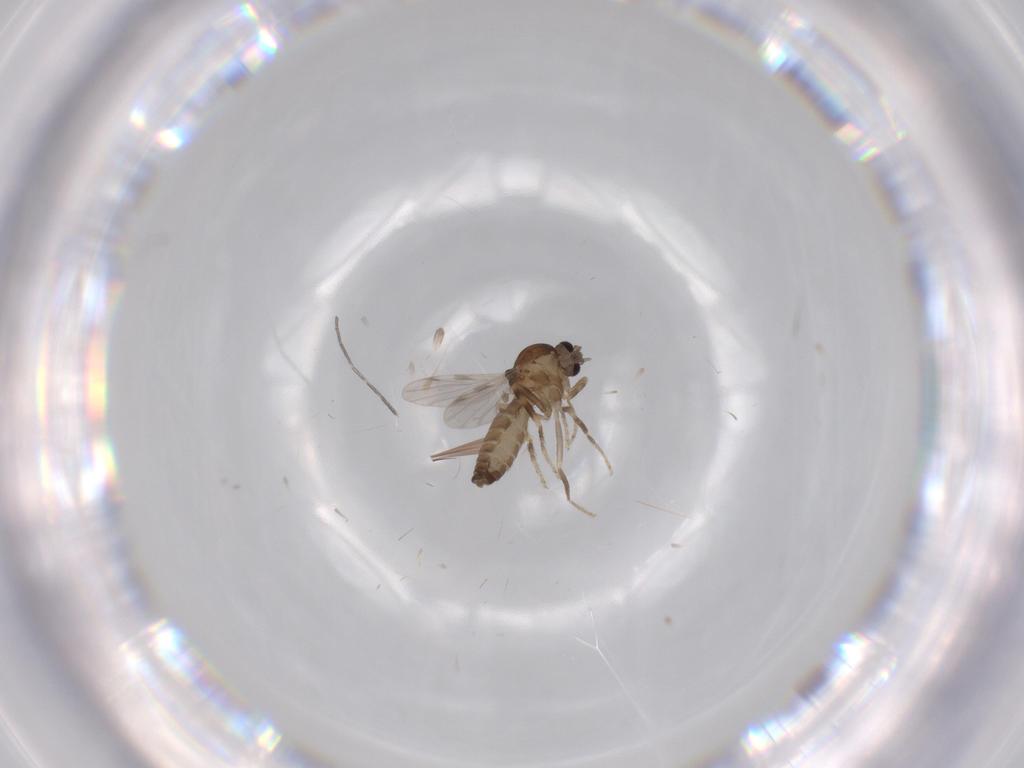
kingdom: Animalia
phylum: Arthropoda
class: Insecta
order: Diptera
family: Ceratopogonidae
